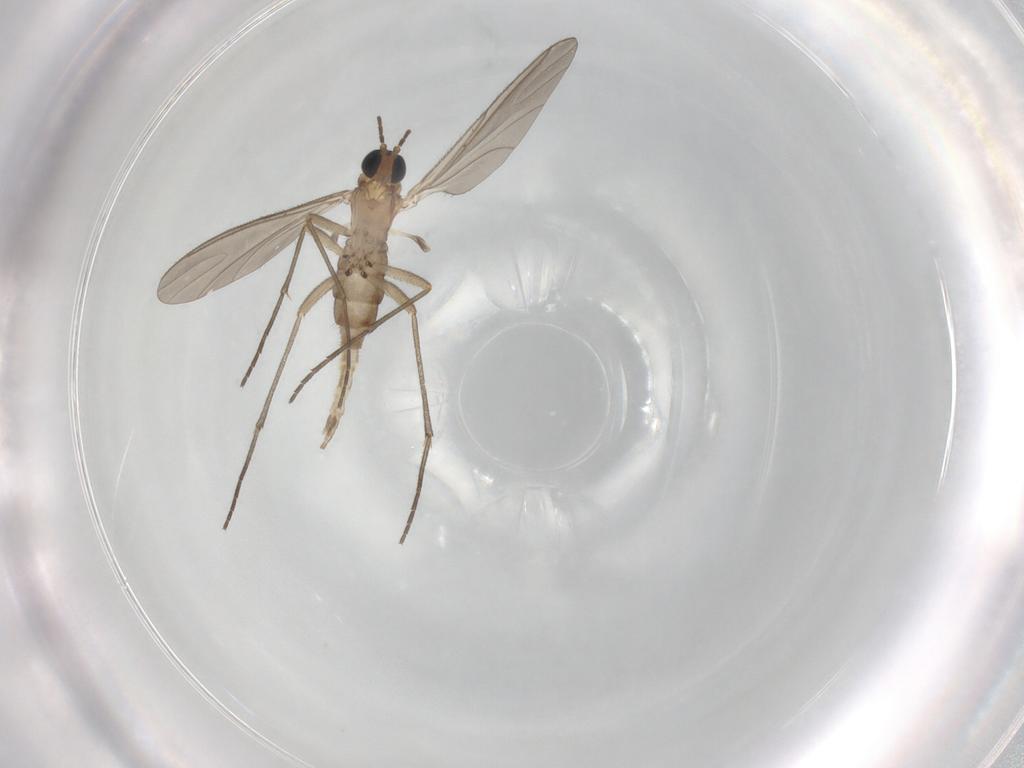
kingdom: Animalia
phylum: Arthropoda
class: Insecta
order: Diptera
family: Sciaridae
